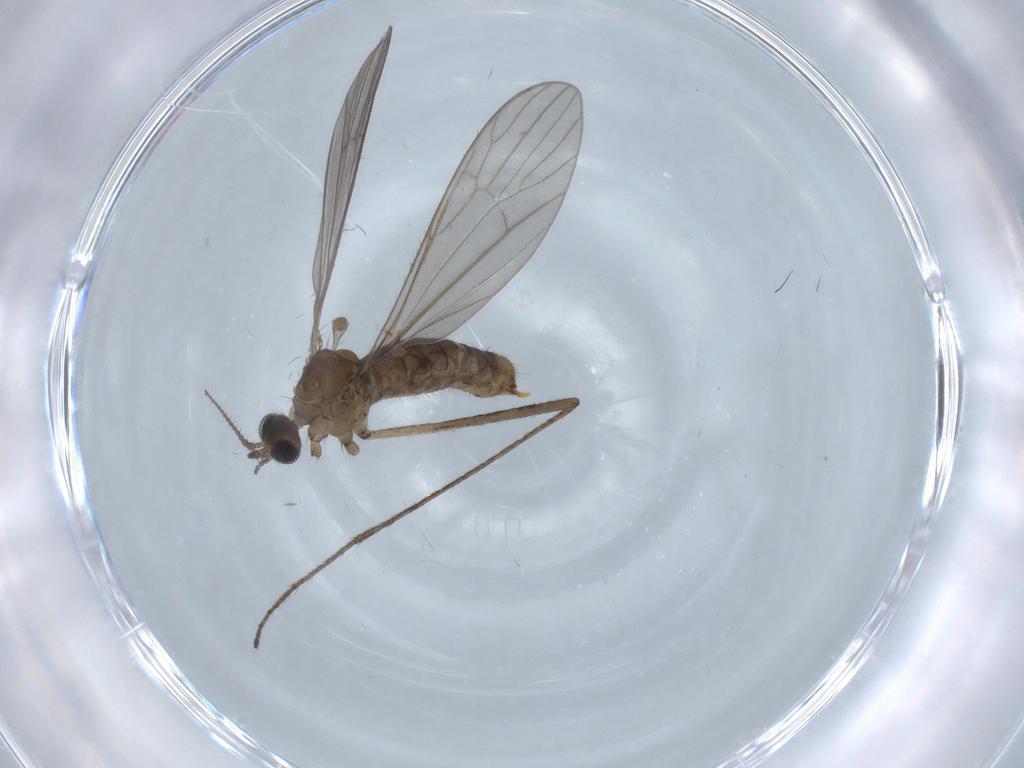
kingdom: Animalia
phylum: Arthropoda
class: Insecta
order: Diptera
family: Limoniidae
